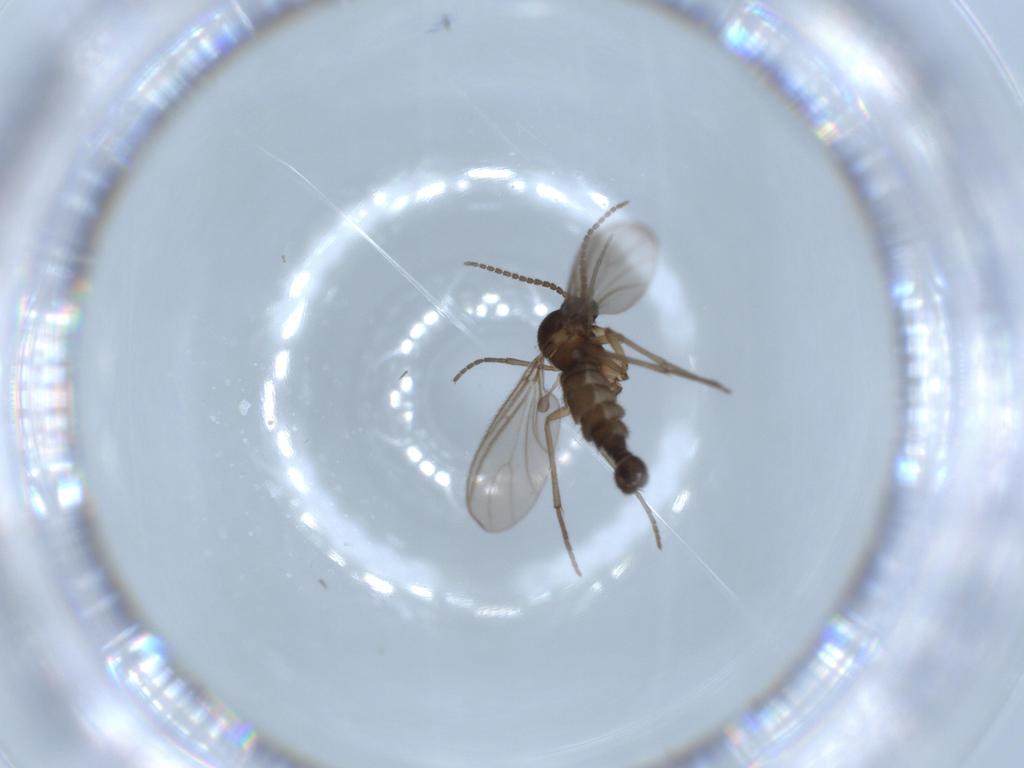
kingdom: Animalia
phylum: Arthropoda
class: Insecta
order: Diptera
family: Sciaridae
